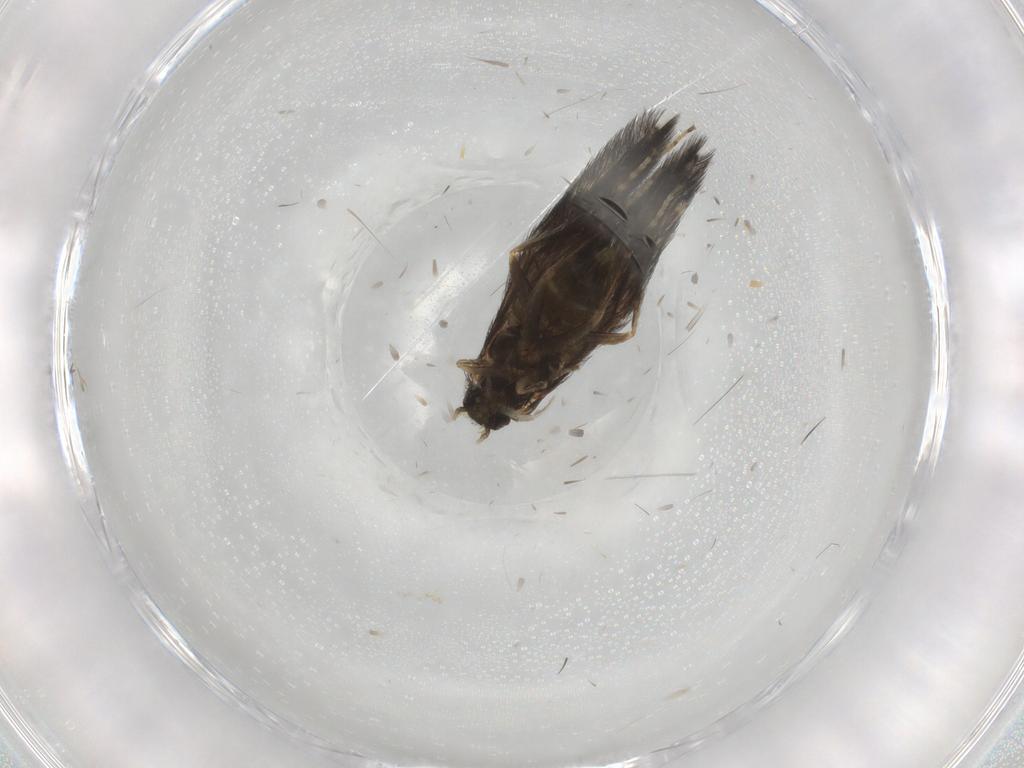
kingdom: Animalia
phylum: Arthropoda
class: Insecta
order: Trichoptera
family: Hydroptilidae
